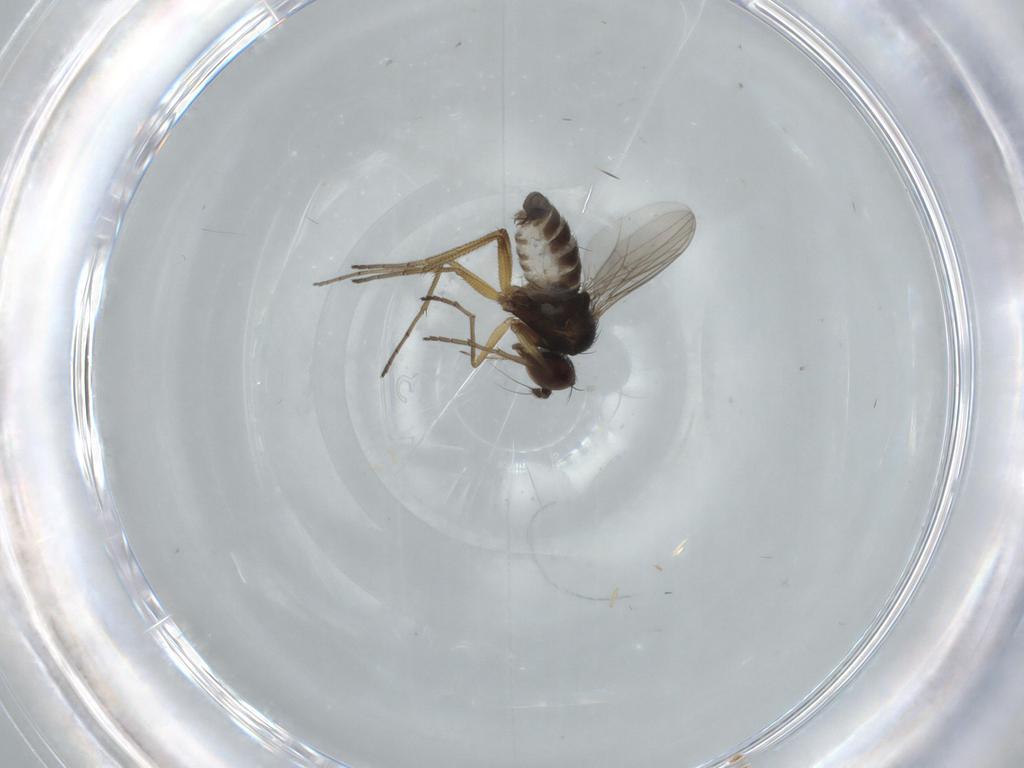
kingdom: Animalia
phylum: Arthropoda
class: Insecta
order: Diptera
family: Dolichopodidae
